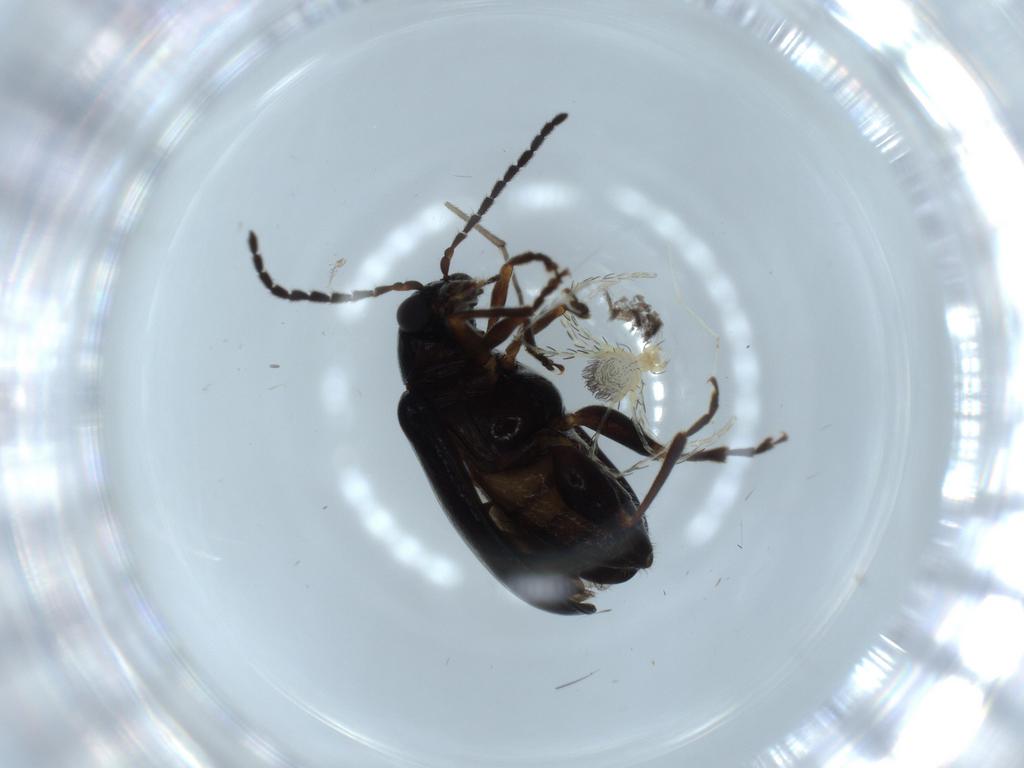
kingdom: Animalia
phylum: Arthropoda
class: Insecta
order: Coleoptera
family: Chrysomelidae
